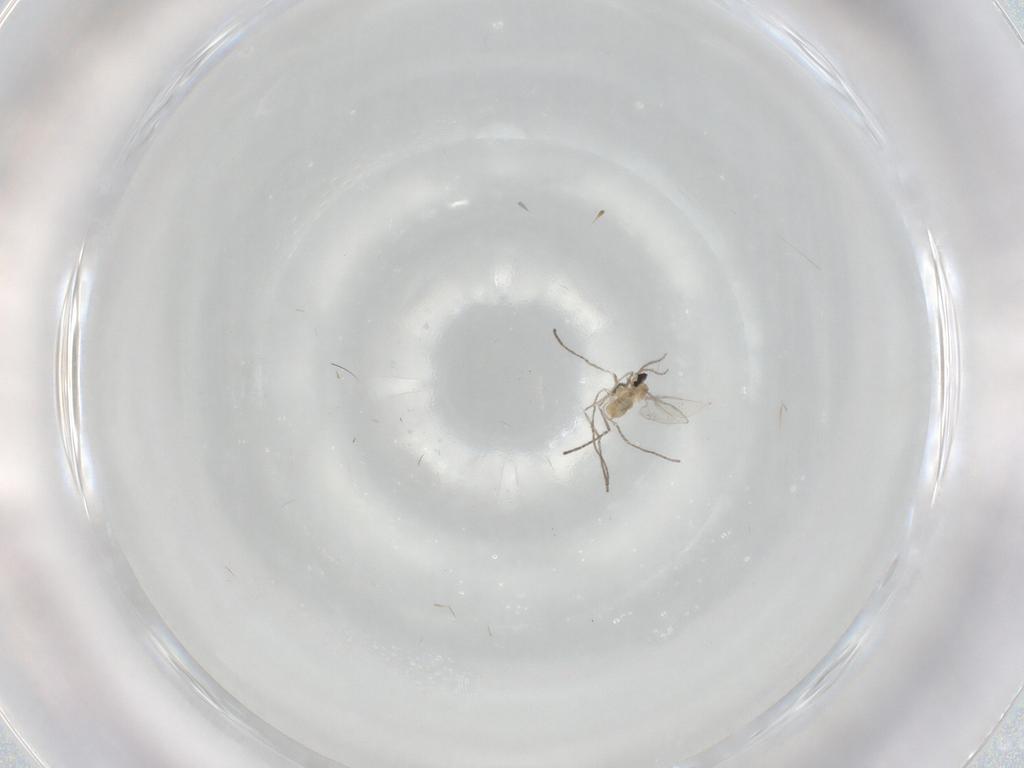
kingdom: Animalia
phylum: Arthropoda
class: Insecta
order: Diptera
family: Cecidomyiidae
